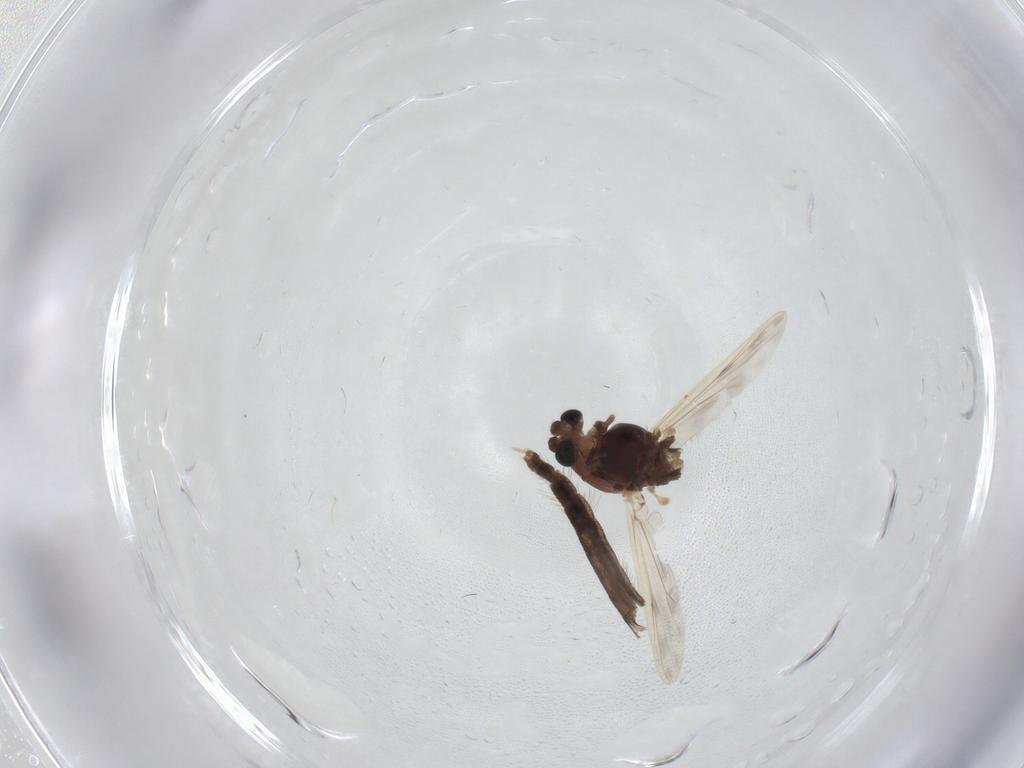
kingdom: Animalia
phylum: Arthropoda
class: Insecta
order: Diptera
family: Chironomidae
